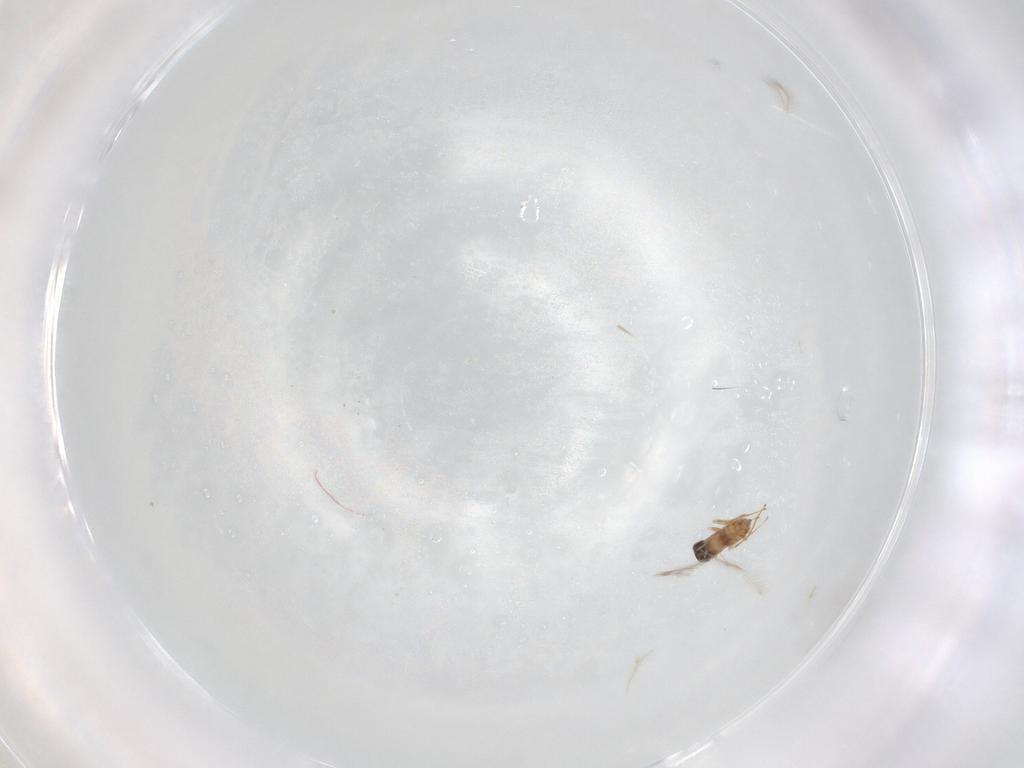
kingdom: Animalia
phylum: Arthropoda
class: Insecta
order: Hymenoptera
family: Mymaridae
